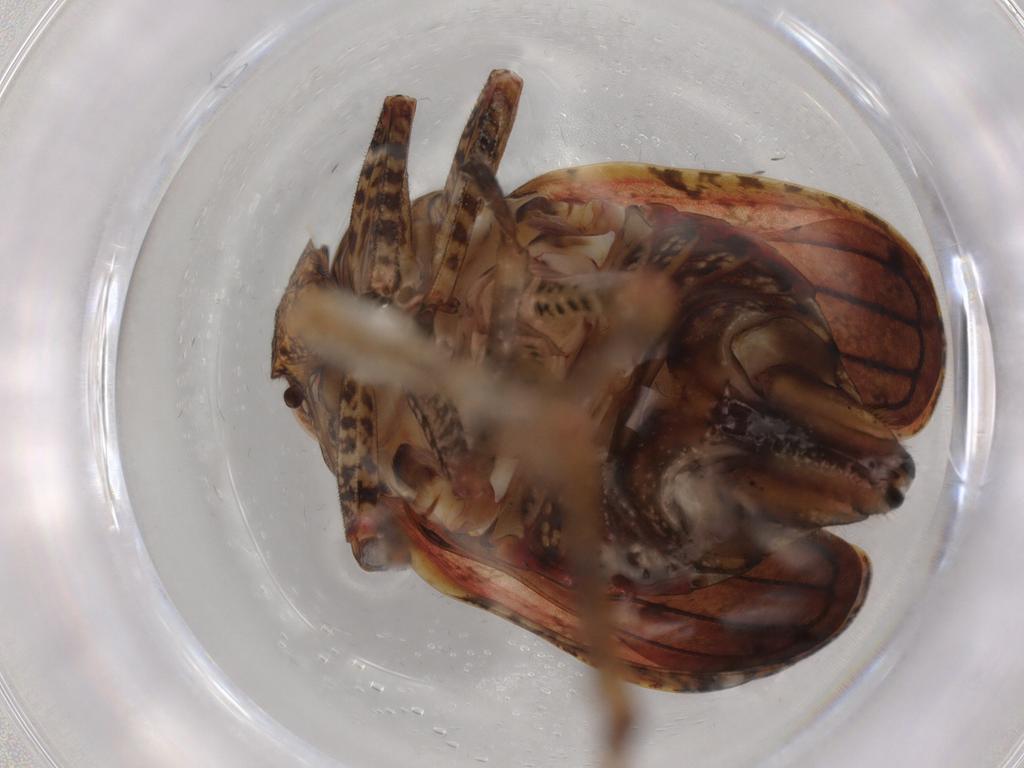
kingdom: Animalia
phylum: Arthropoda
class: Insecta
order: Hemiptera
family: Tropiduchidae
